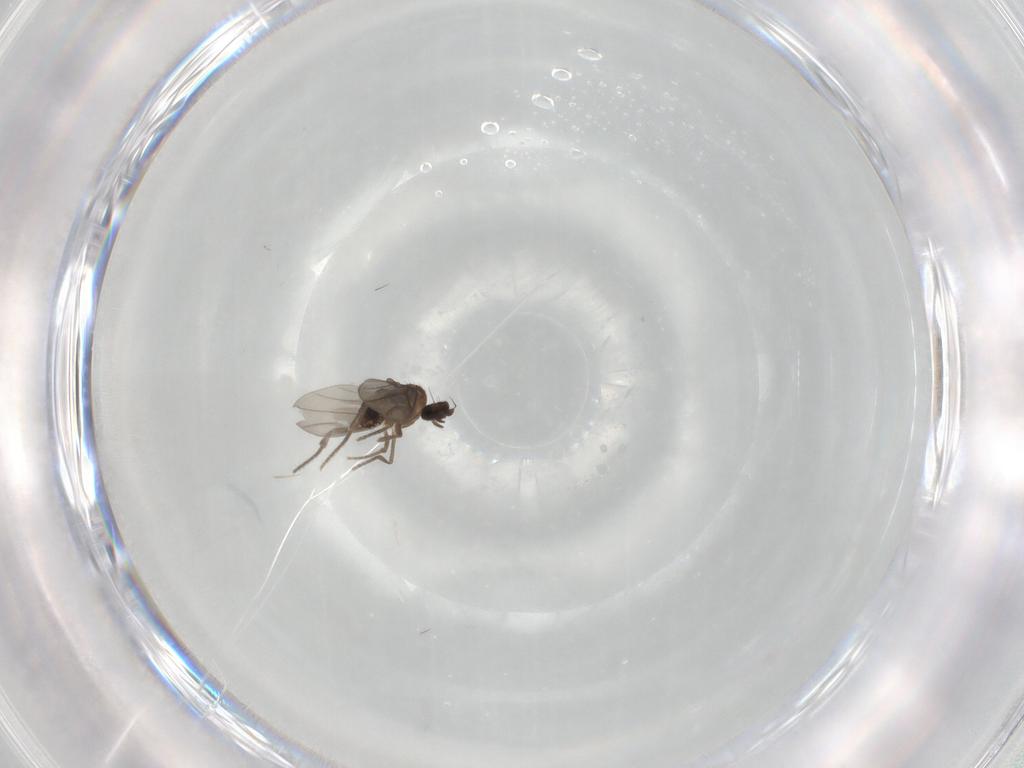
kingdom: Animalia
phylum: Arthropoda
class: Insecta
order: Diptera
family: Phoridae
